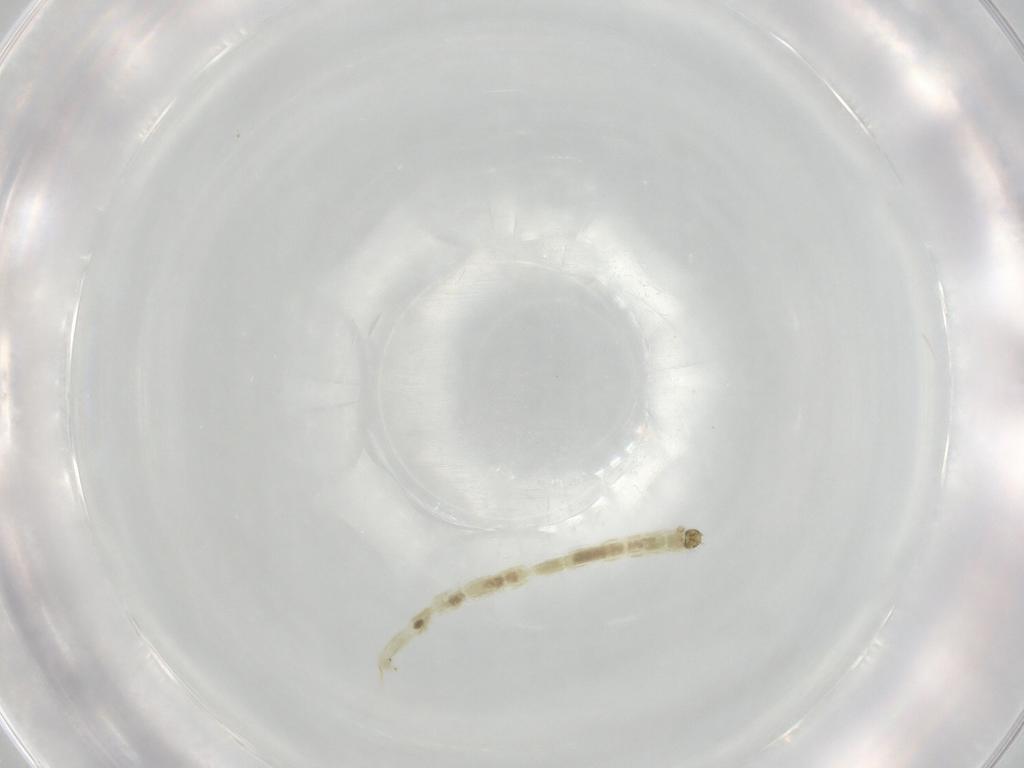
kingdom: Animalia
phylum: Arthropoda
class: Insecta
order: Diptera
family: Chironomidae
